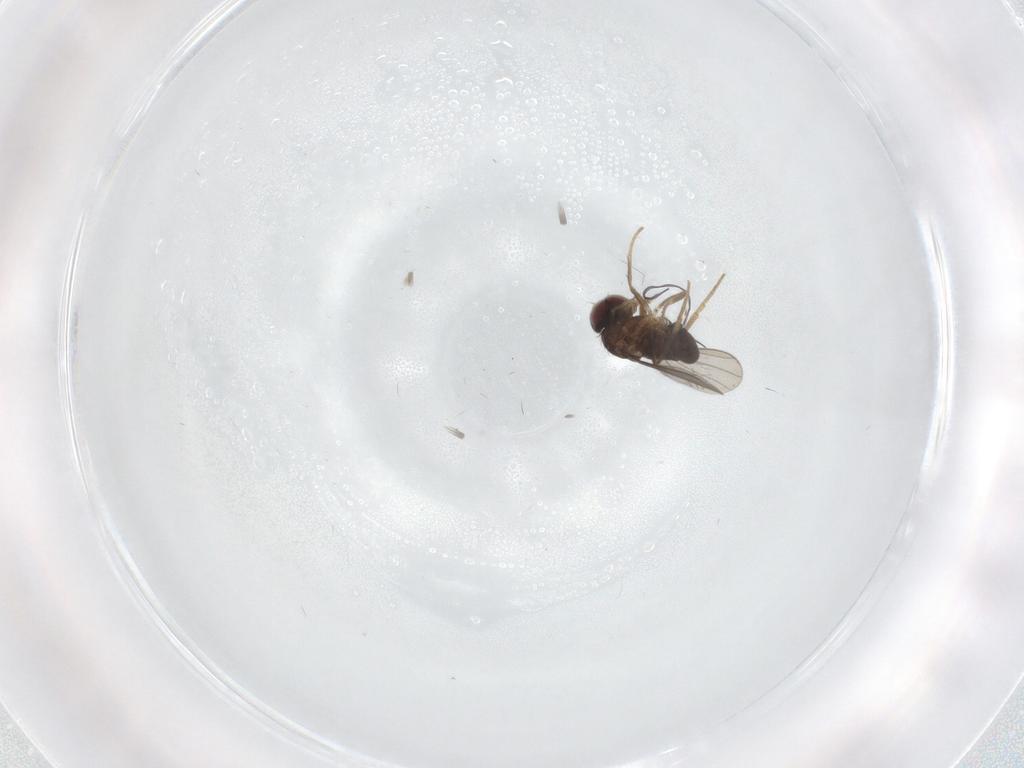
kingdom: Animalia
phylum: Arthropoda
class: Insecta
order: Diptera
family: Dolichopodidae
